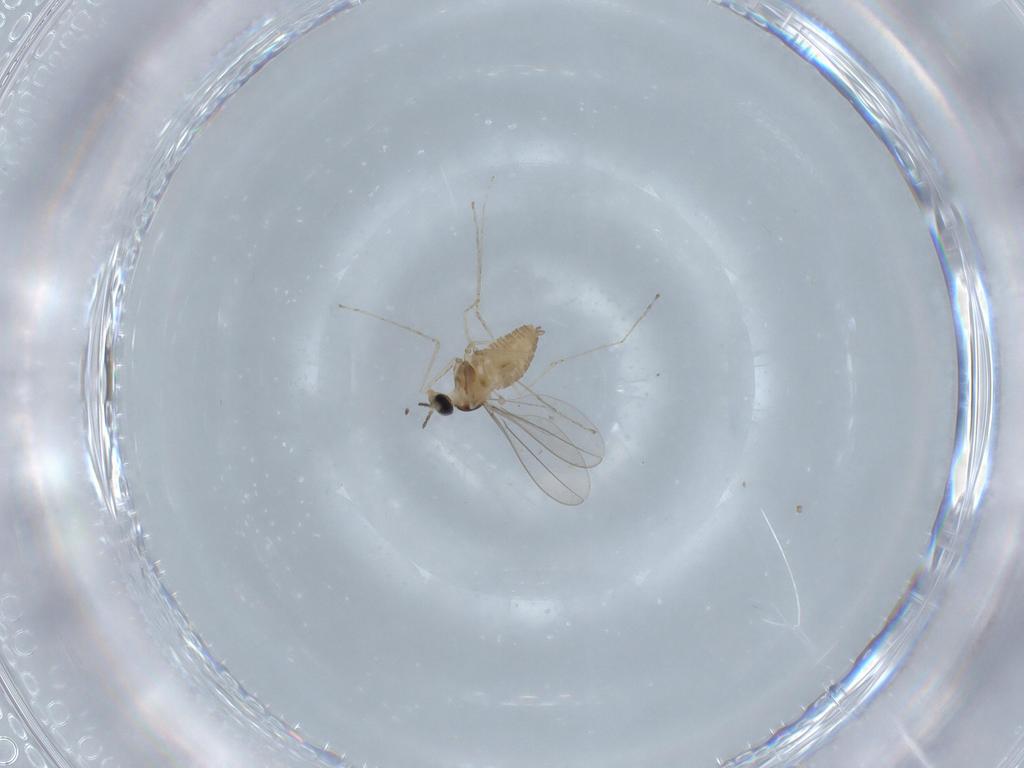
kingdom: Animalia
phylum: Arthropoda
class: Insecta
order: Diptera
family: Cecidomyiidae
